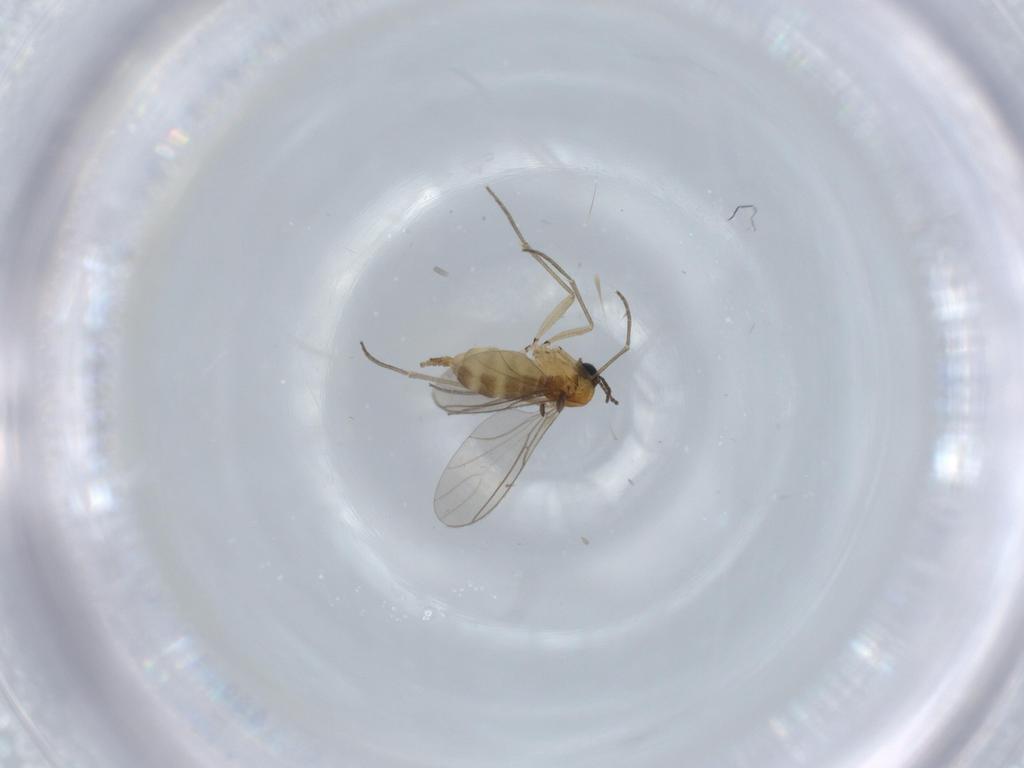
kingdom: Animalia
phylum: Arthropoda
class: Insecta
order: Diptera
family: Sciaridae
